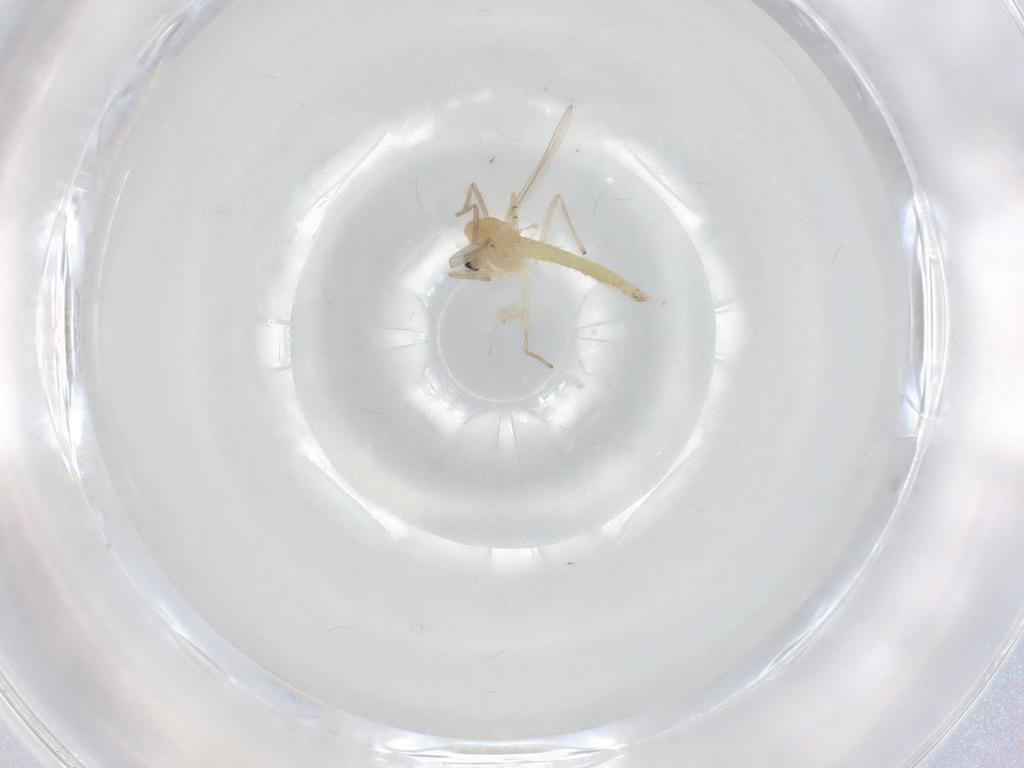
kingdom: Animalia
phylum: Arthropoda
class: Insecta
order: Diptera
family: Chironomidae
